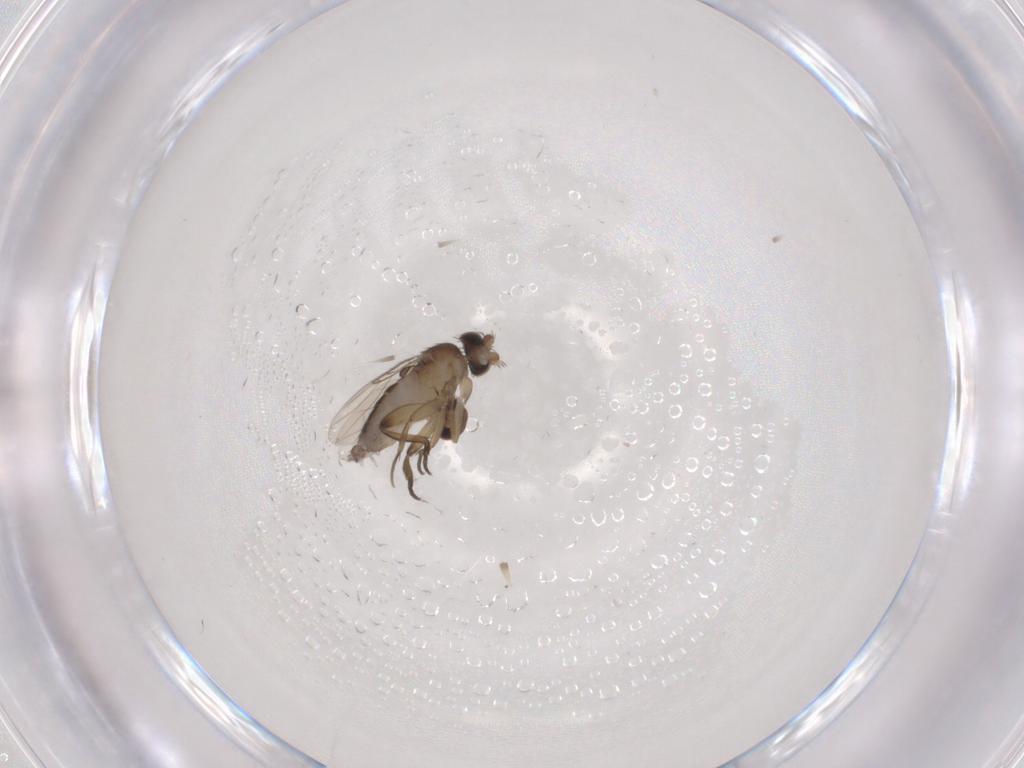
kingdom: Animalia
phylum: Arthropoda
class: Insecta
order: Diptera
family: Psychodidae
